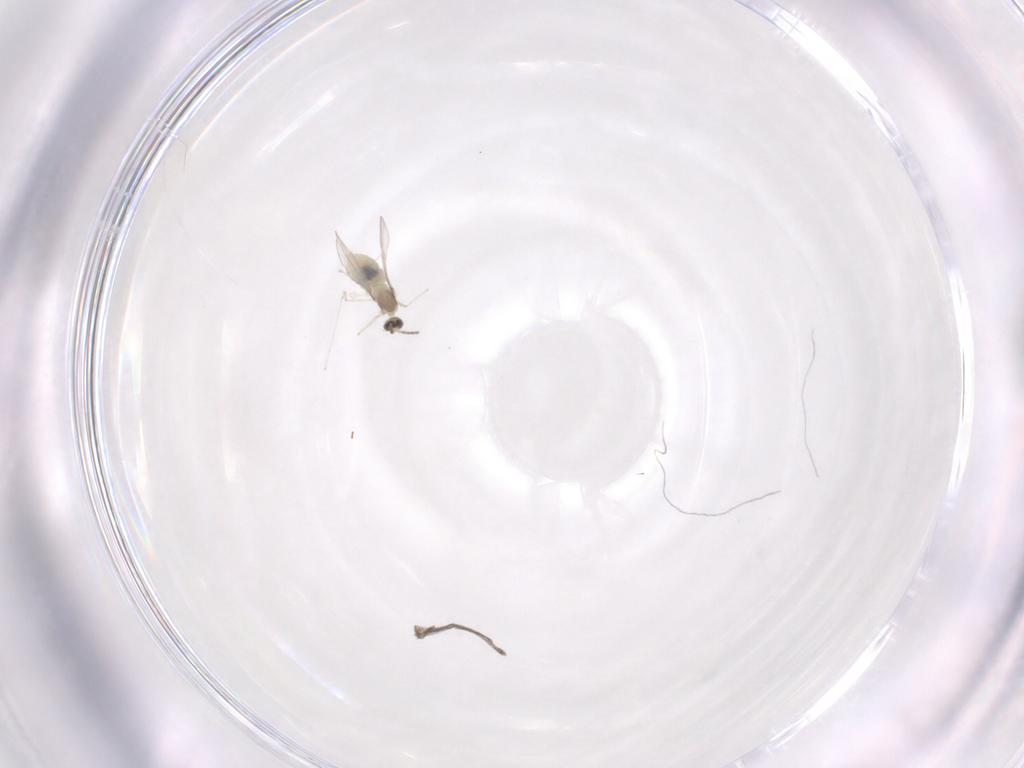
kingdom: Animalia
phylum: Arthropoda
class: Insecta
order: Diptera
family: Cecidomyiidae
